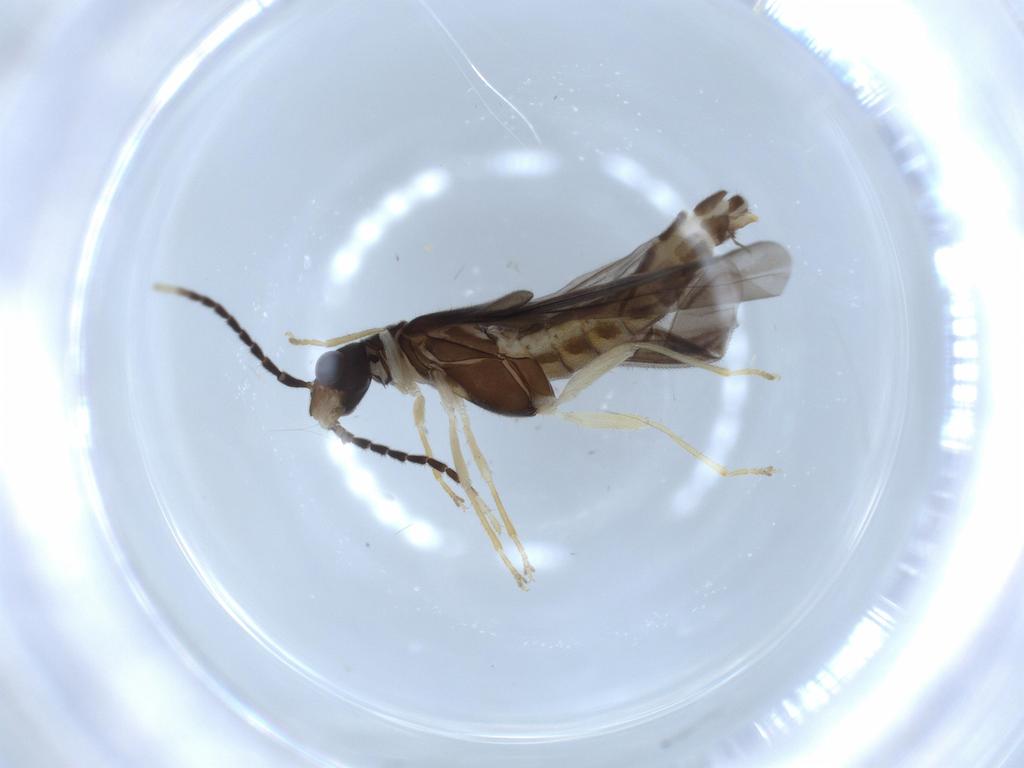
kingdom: Animalia
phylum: Arthropoda
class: Insecta
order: Coleoptera
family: Cantharidae
